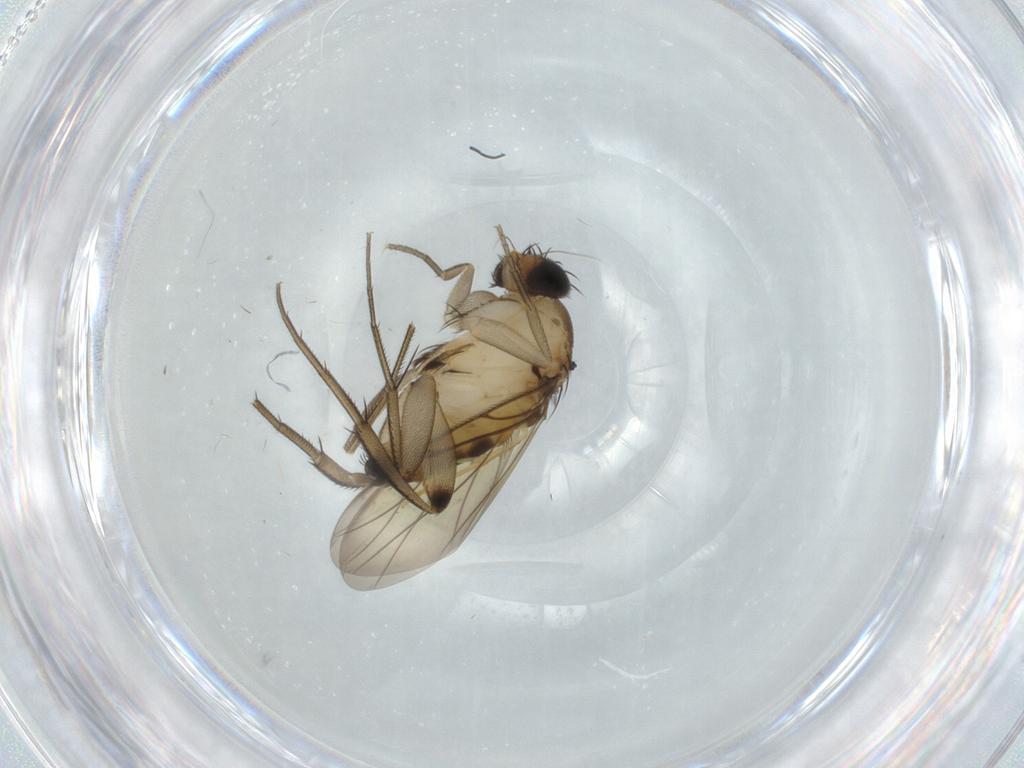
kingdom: Animalia
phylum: Arthropoda
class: Insecta
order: Diptera
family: Phoridae
